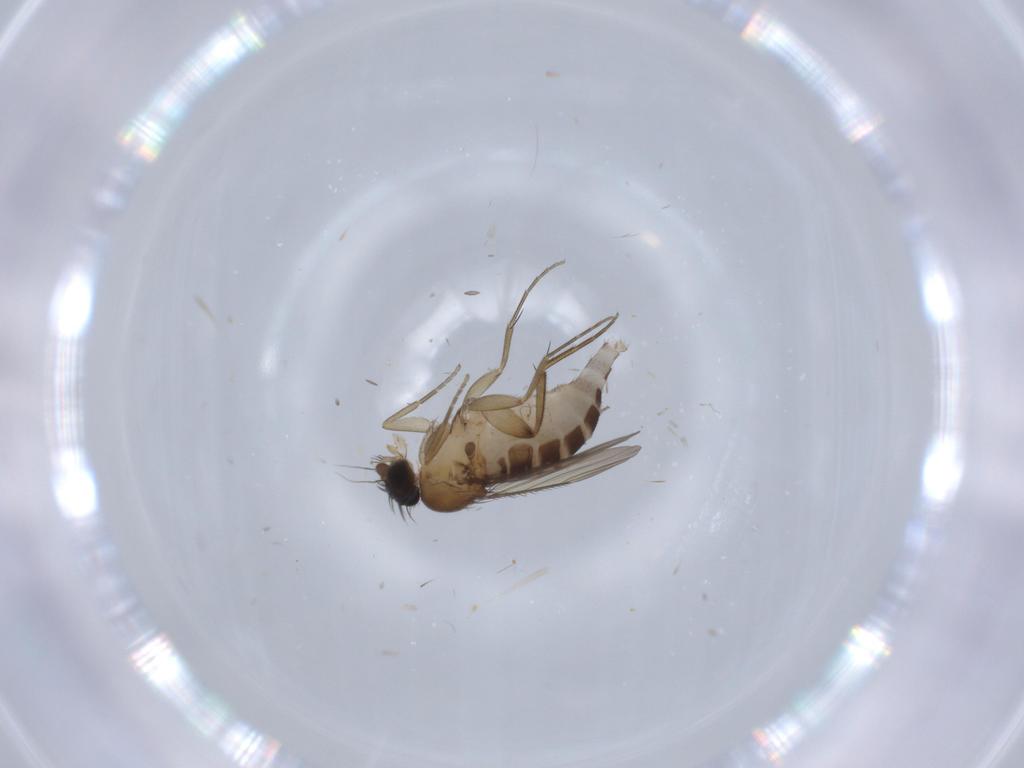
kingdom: Animalia
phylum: Arthropoda
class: Insecta
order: Diptera
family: Phoridae
